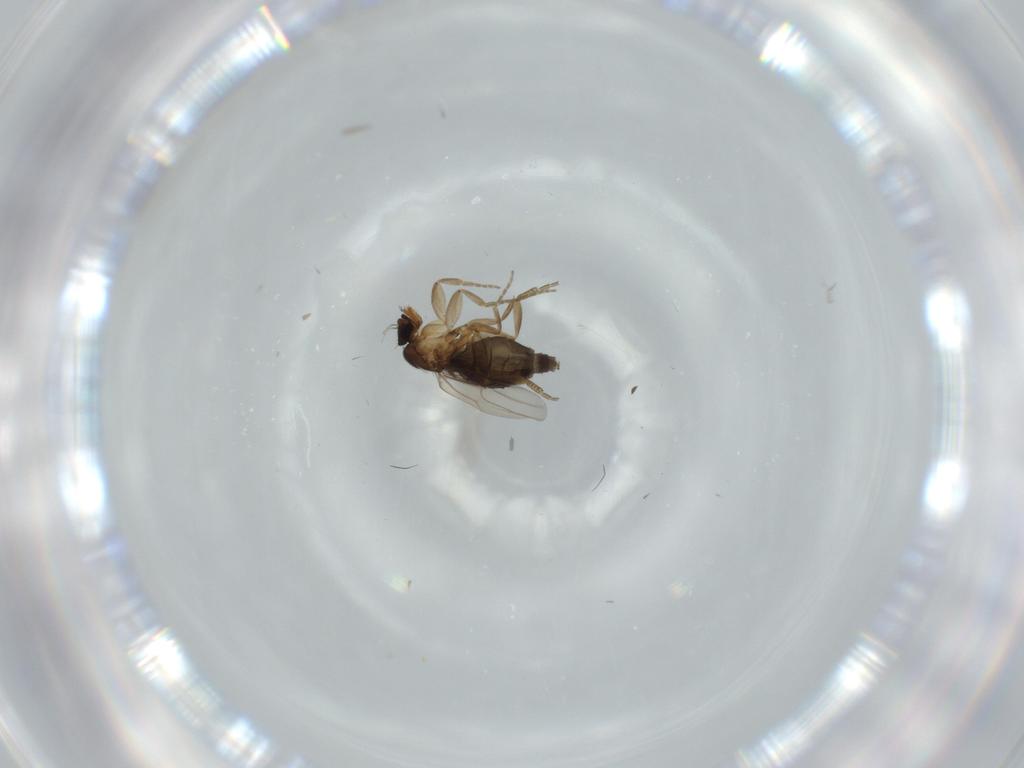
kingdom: Animalia
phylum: Arthropoda
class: Insecta
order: Diptera
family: Phoridae
